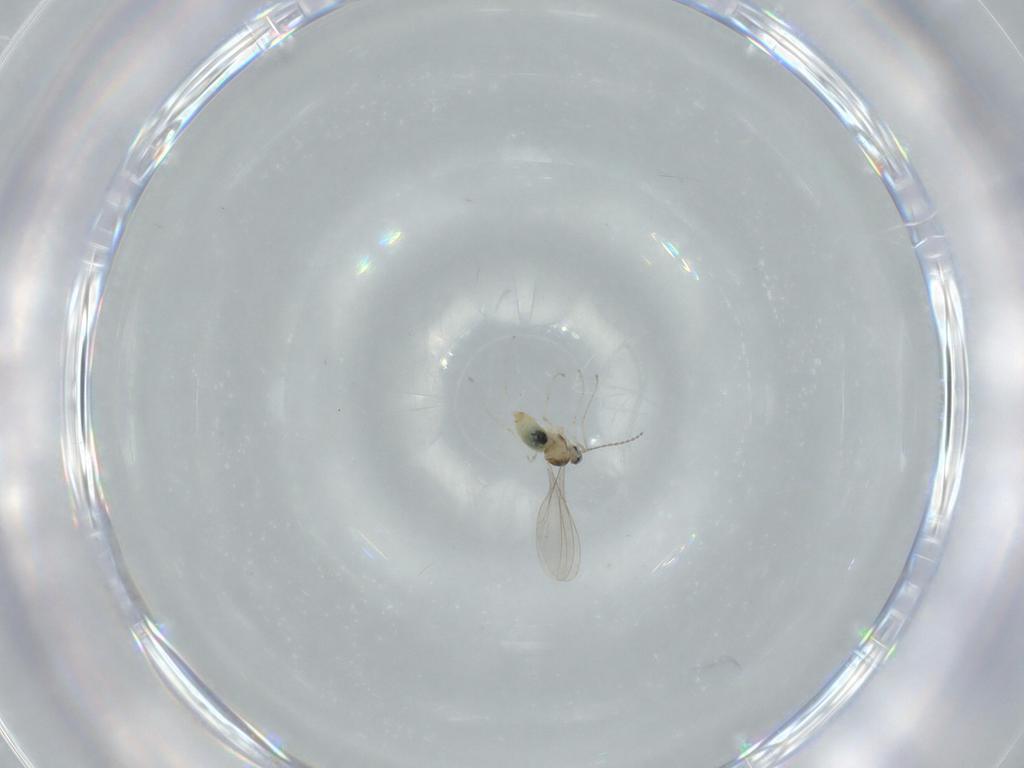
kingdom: Animalia
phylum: Arthropoda
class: Insecta
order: Diptera
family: Cecidomyiidae
